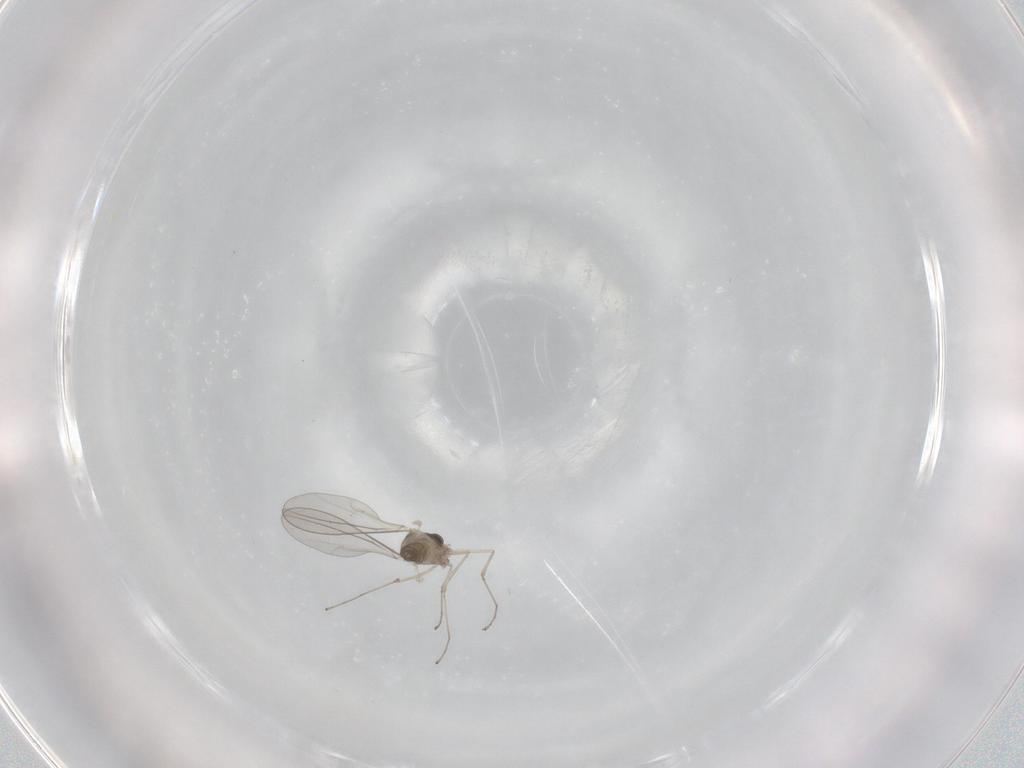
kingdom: Animalia
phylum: Arthropoda
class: Insecta
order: Diptera
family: Cecidomyiidae
